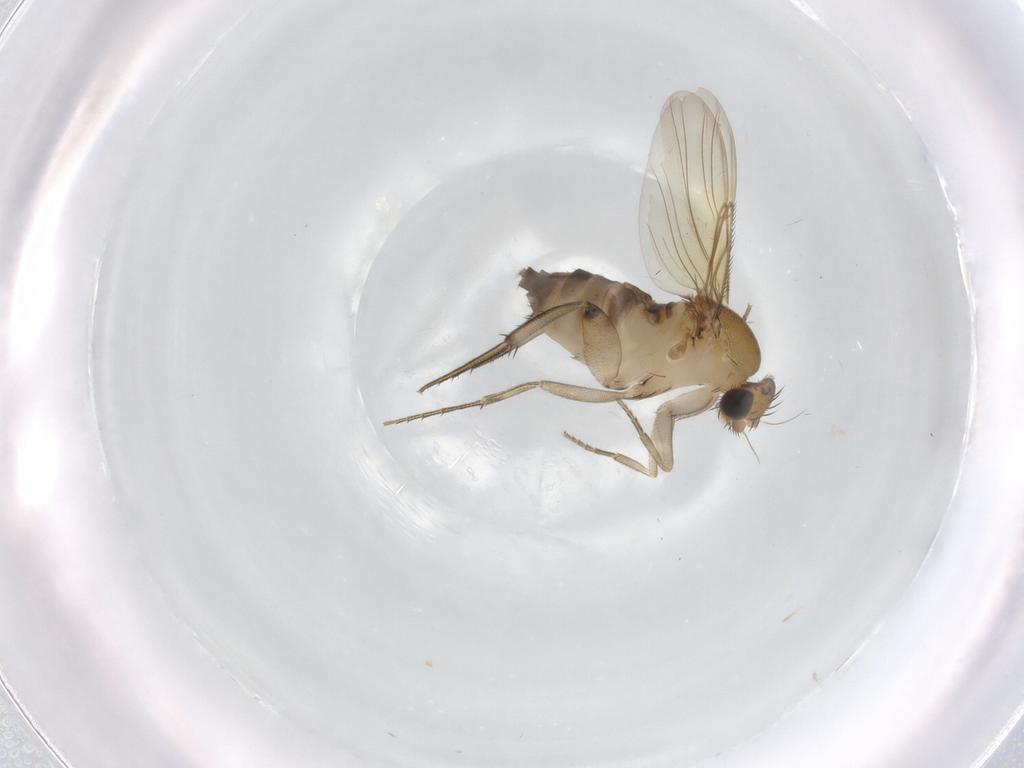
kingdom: Animalia
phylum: Arthropoda
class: Insecta
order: Diptera
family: Phoridae
